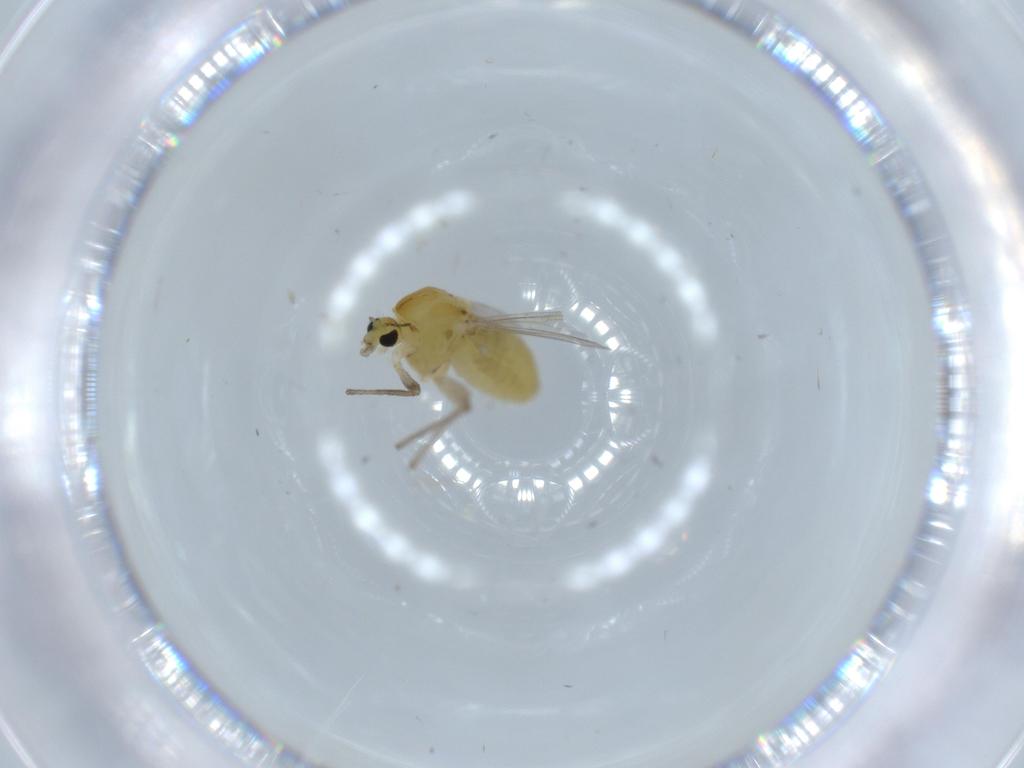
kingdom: Animalia
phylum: Arthropoda
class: Insecta
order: Diptera
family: Chironomidae
